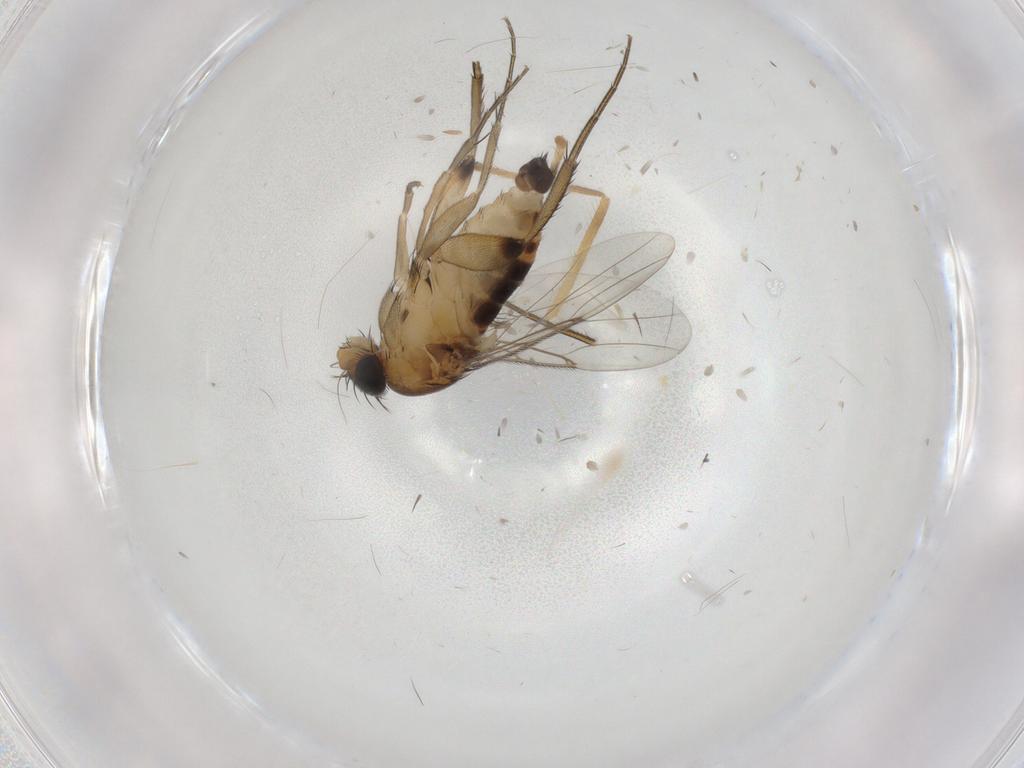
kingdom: Animalia
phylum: Arthropoda
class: Insecta
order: Diptera
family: Phoridae
